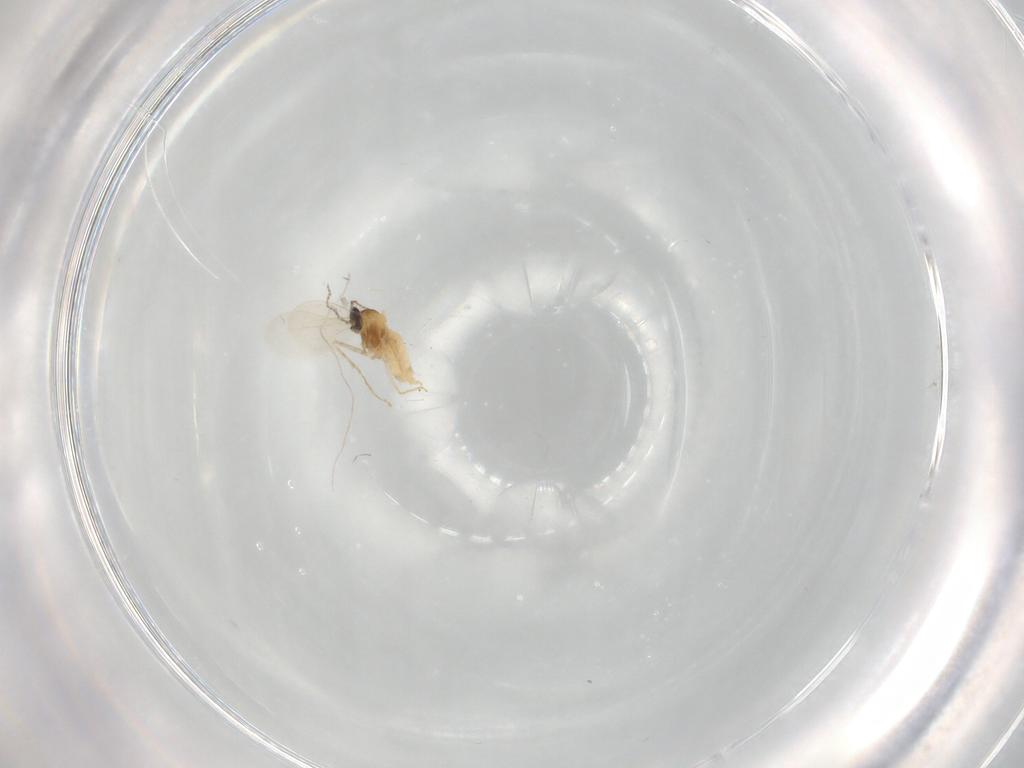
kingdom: Animalia
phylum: Arthropoda
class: Insecta
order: Diptera
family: Cecidomyiidae
